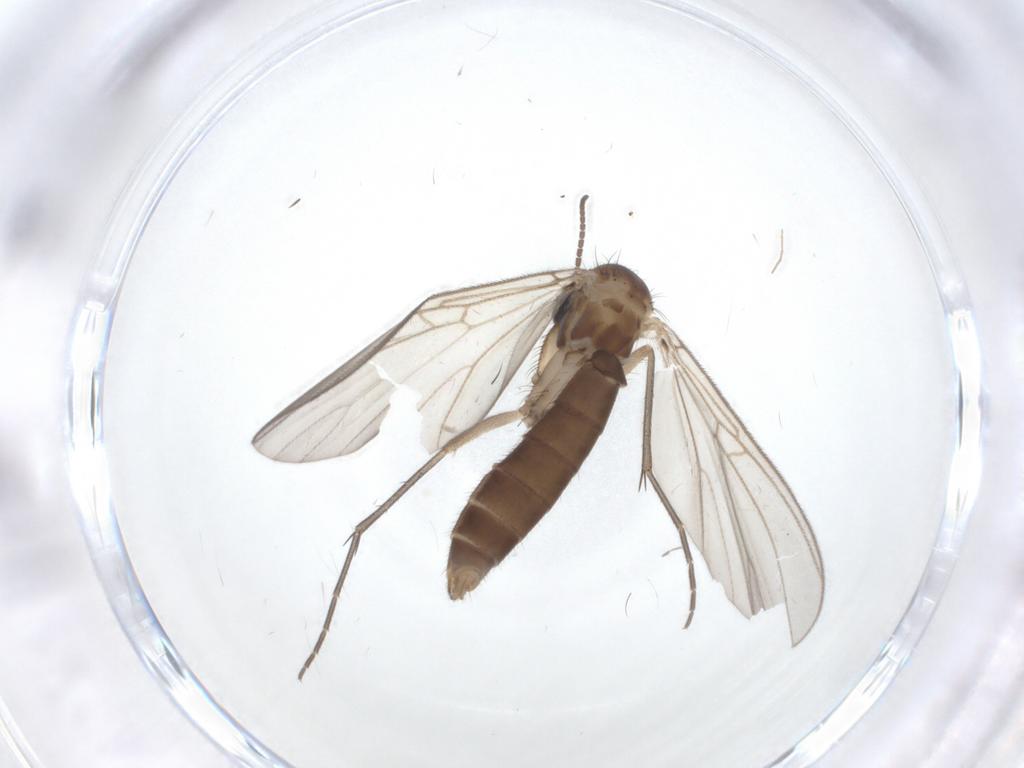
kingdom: Animalia
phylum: Arthropoda
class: Insecta
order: Diptera
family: Mycetophilidae
